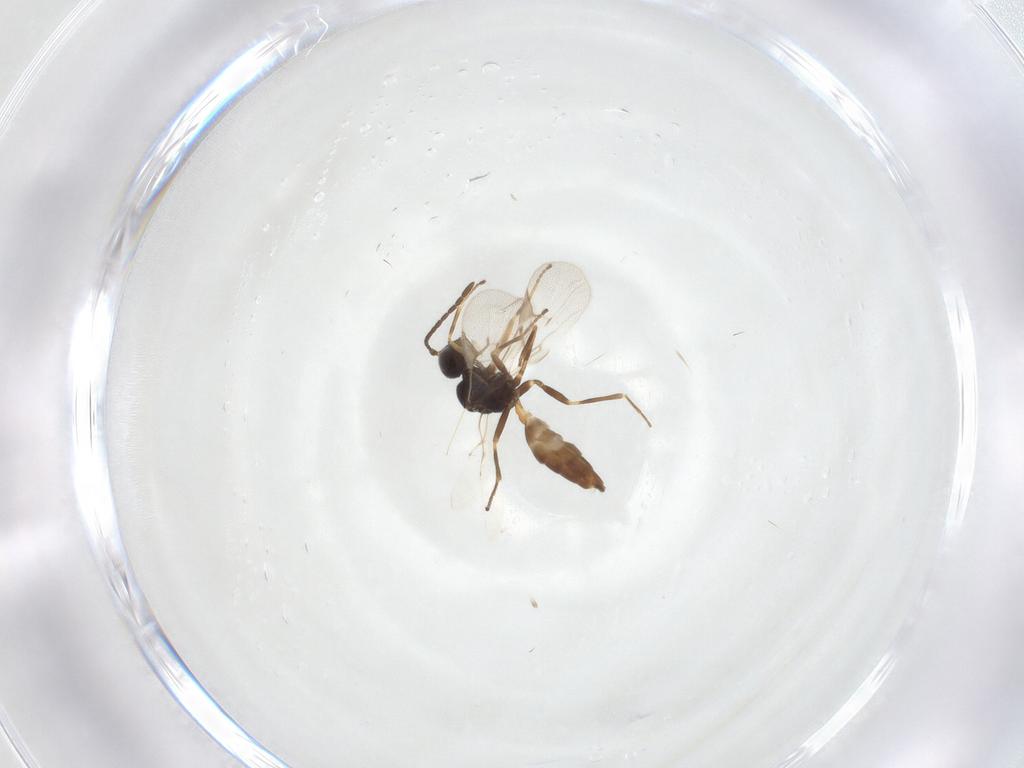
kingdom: Animalia
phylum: Arthropoda
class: Insecta
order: Hymenoptera
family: Braconidae
